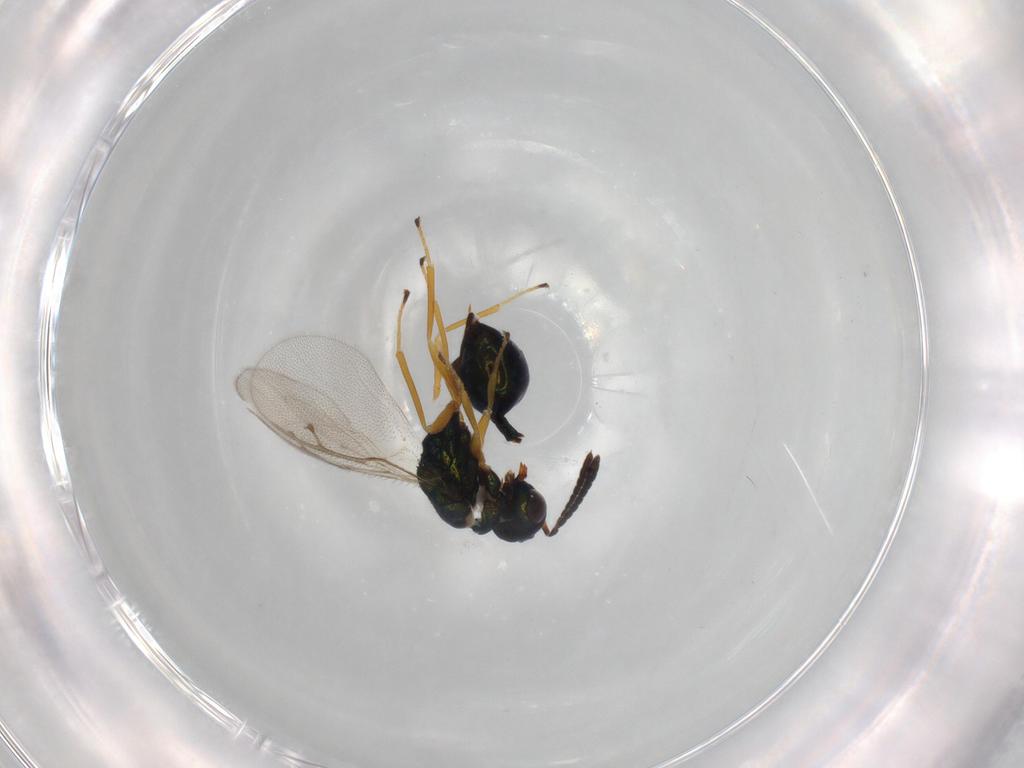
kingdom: Animalia
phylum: Arthropoda
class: Insecta
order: Hymenoptera
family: Pteromalidae
